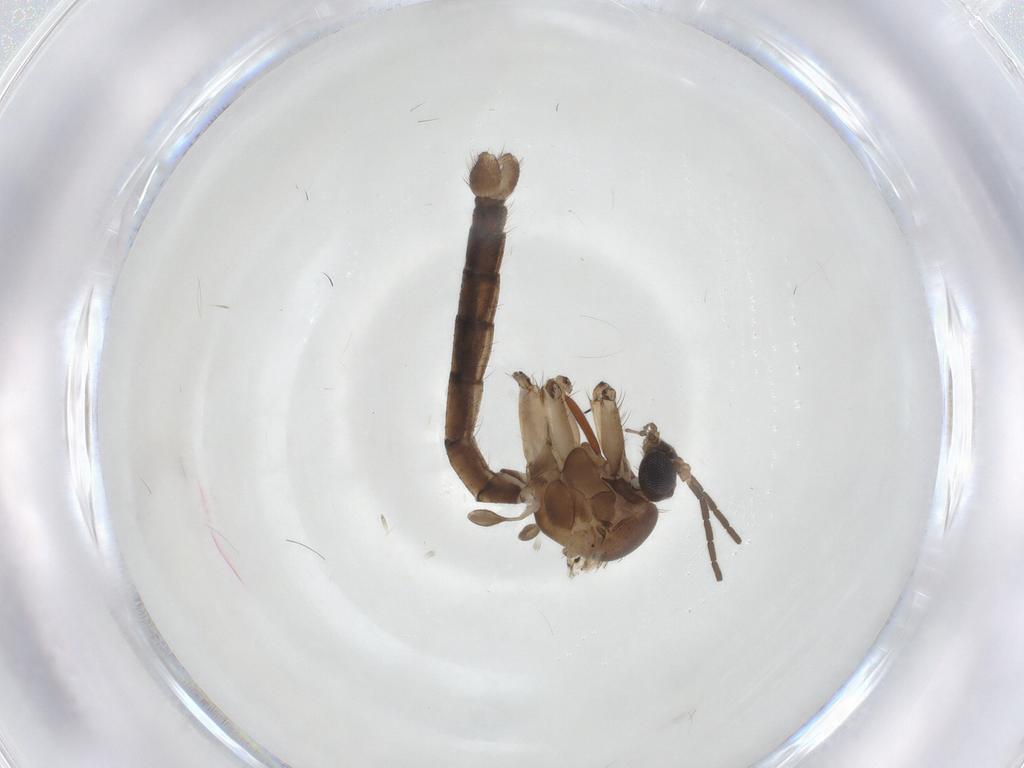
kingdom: Animalia
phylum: Arthropoda
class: Insecta
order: Diptera
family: Mycetophilidae
